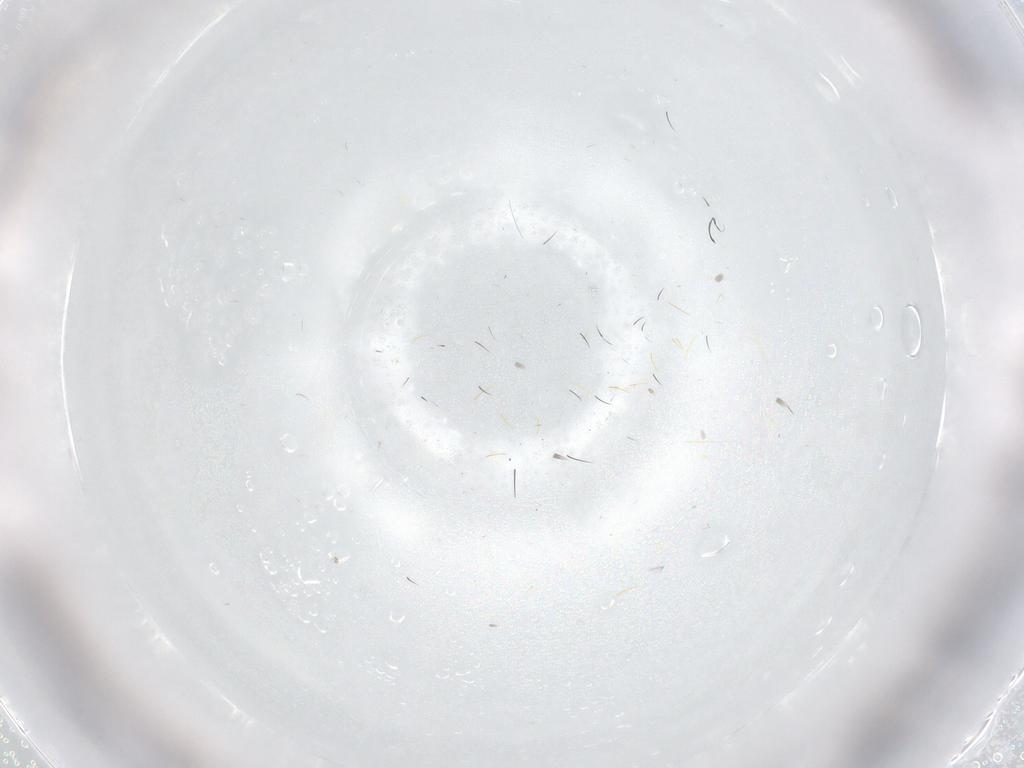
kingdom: Animalia
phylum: Arthropoda
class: Insecta
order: Hemiptera
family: Aleyrodidae
